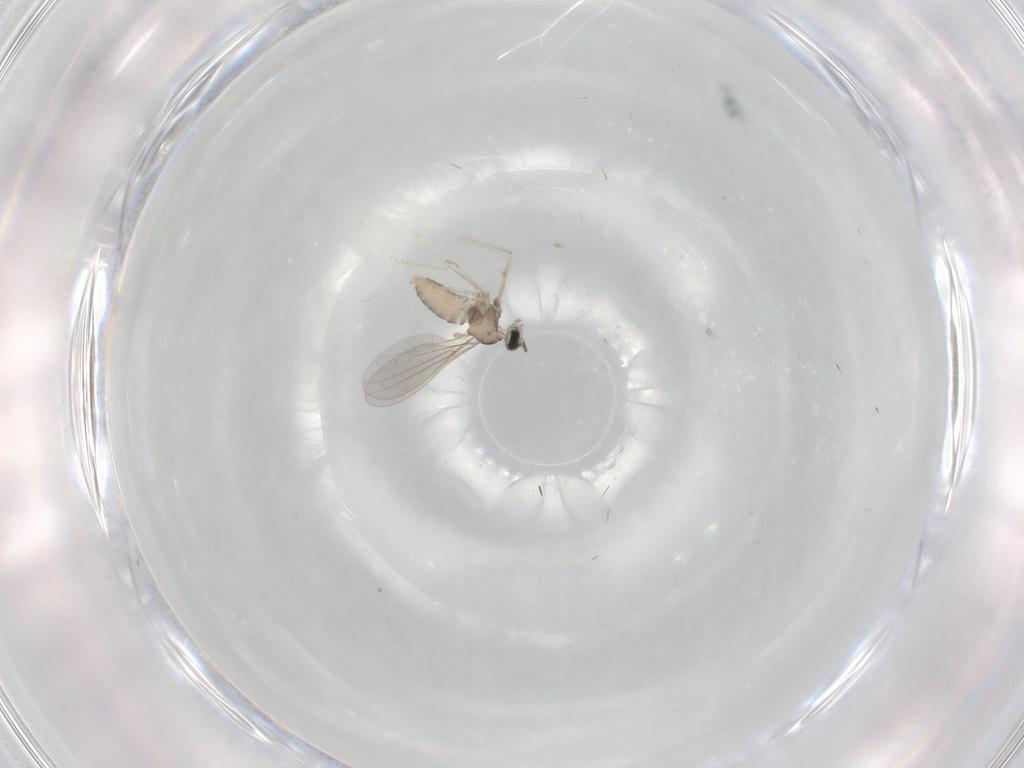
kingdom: Animalia
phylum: Arthropoda
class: Insecta
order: Diptera
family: Cecidomyiidae
